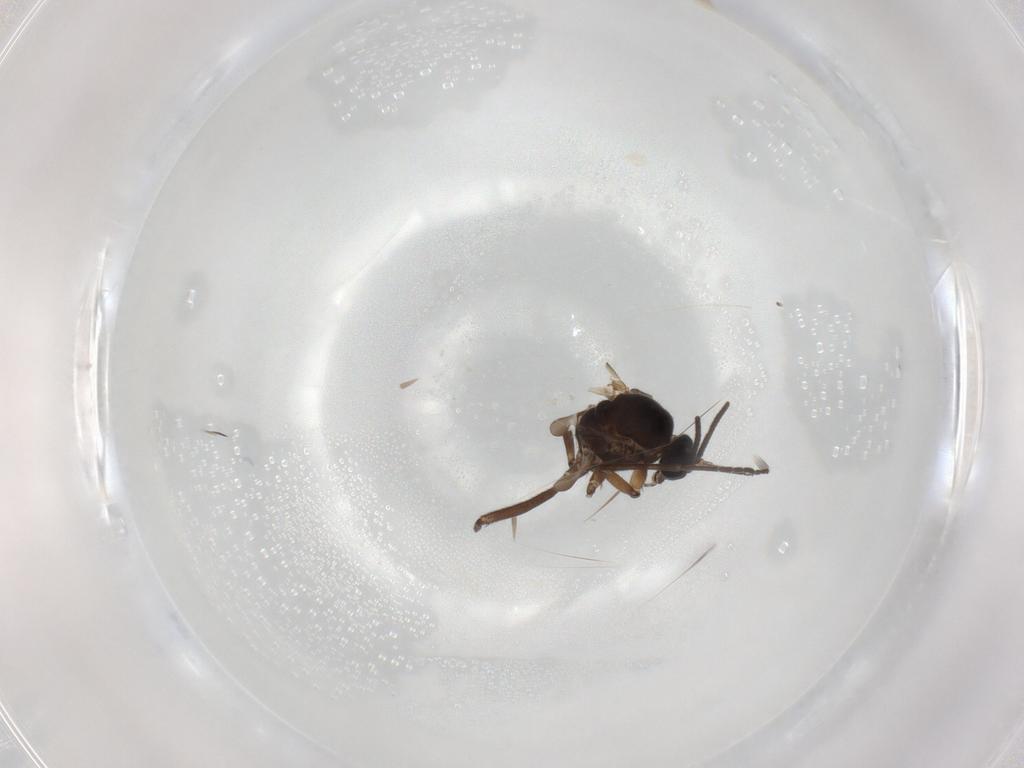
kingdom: Animalia
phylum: Arthropoda
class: Insecta
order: Diptera
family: Sciaridae
